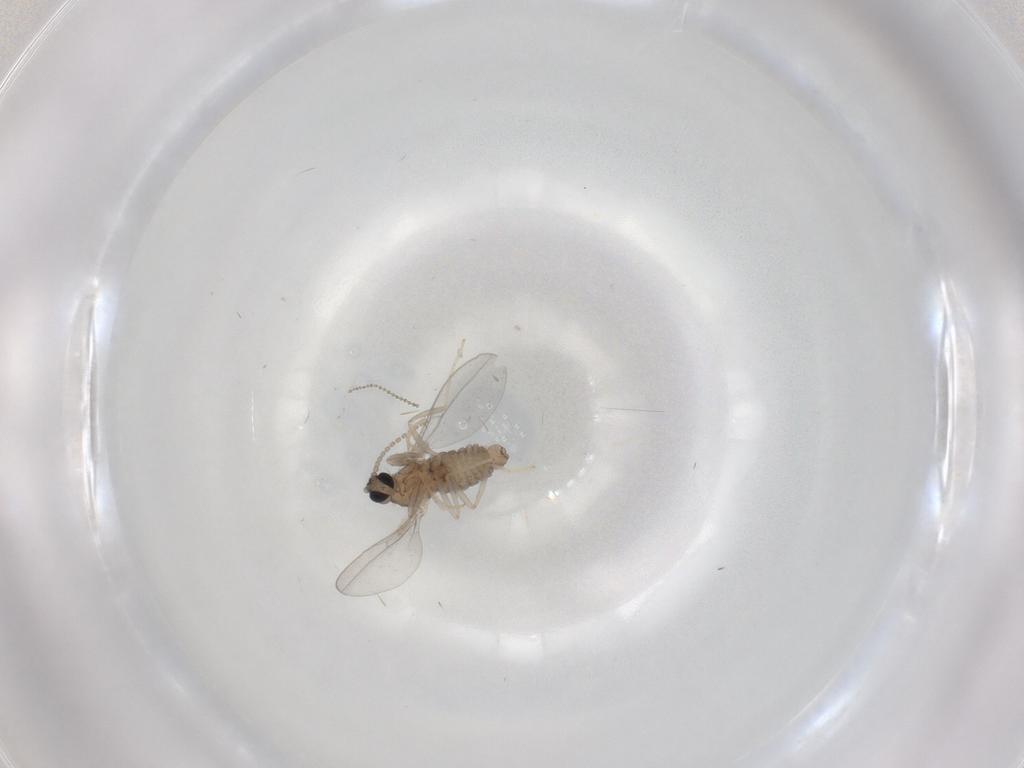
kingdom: Animalia
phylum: Arthropoda
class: Insecta
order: Diptera
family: Cecidomyiidae
